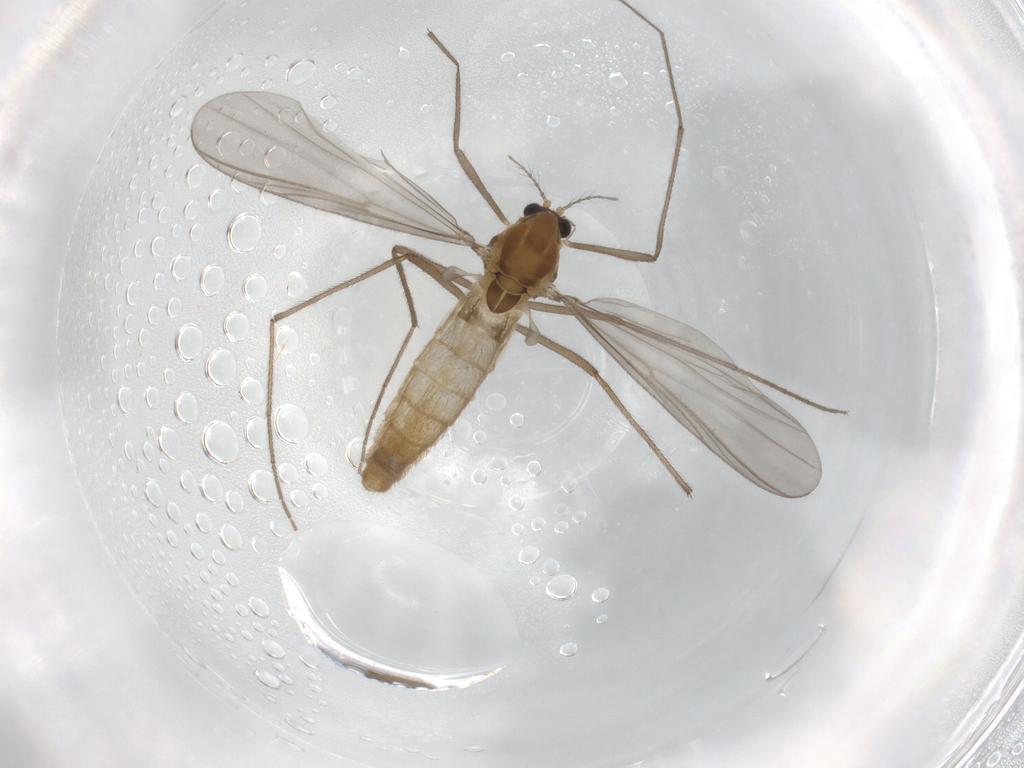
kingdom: Animalia
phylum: Arthropoda
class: Insecta
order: Diptera
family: Chironomidae
